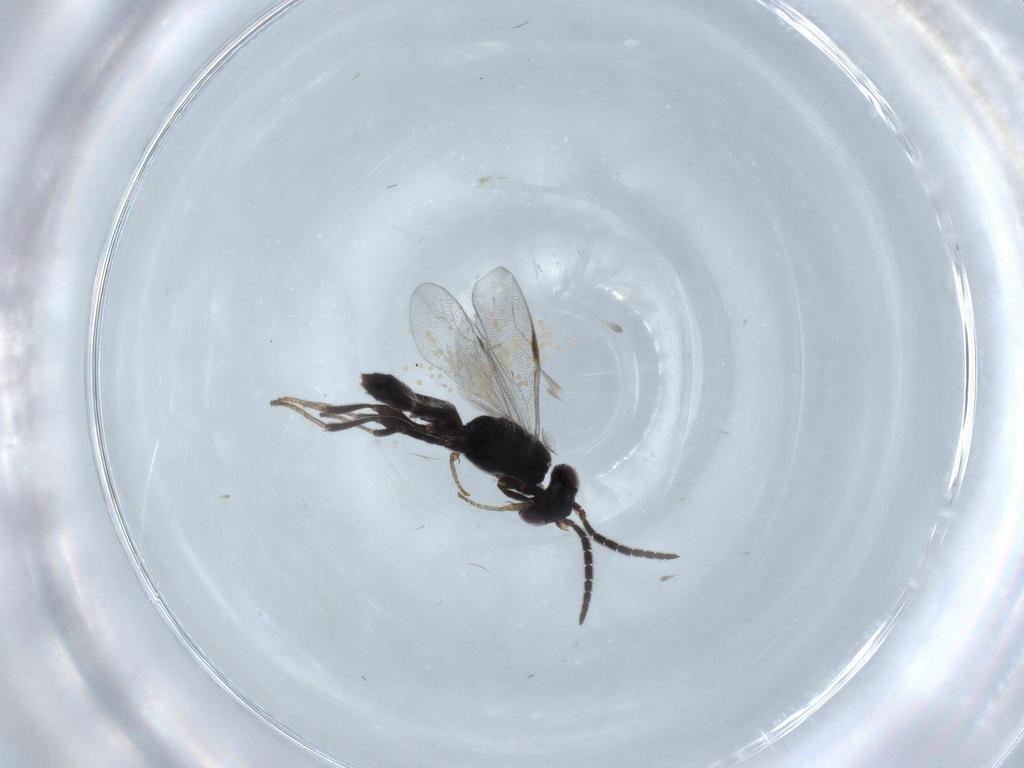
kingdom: Animalia
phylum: Arthropoda
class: Insecta
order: Hymenoptera
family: Dryinidae
